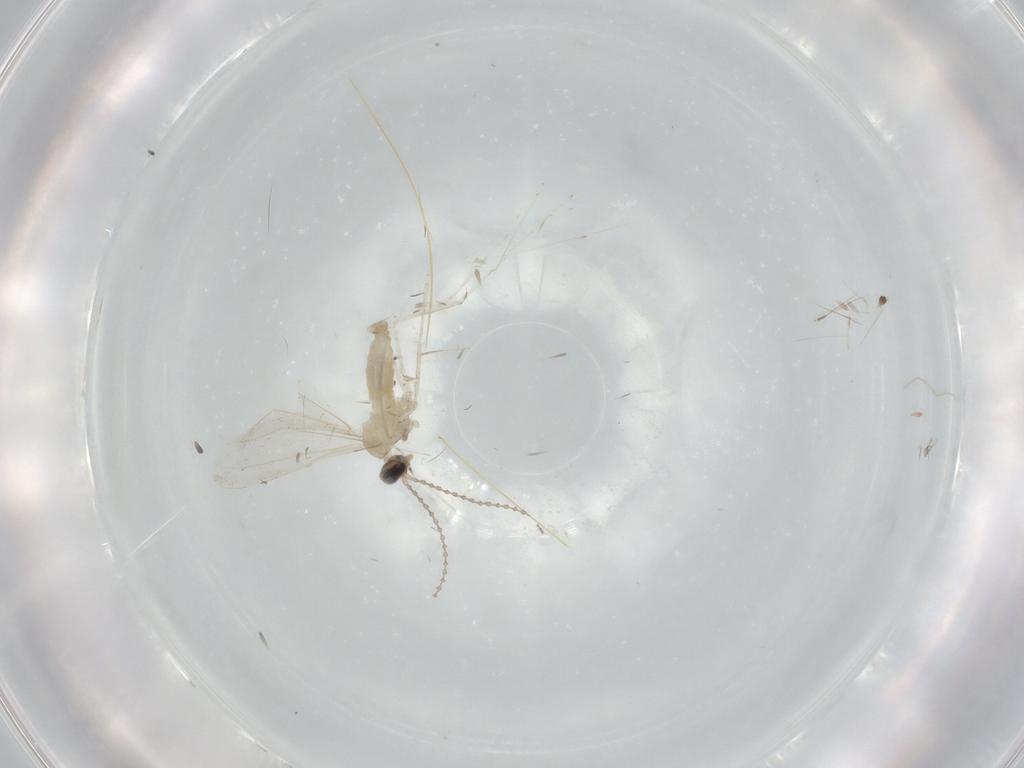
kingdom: Animalia
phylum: Arthropoda
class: Insecta
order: Diptera
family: Cecidomyiidae
